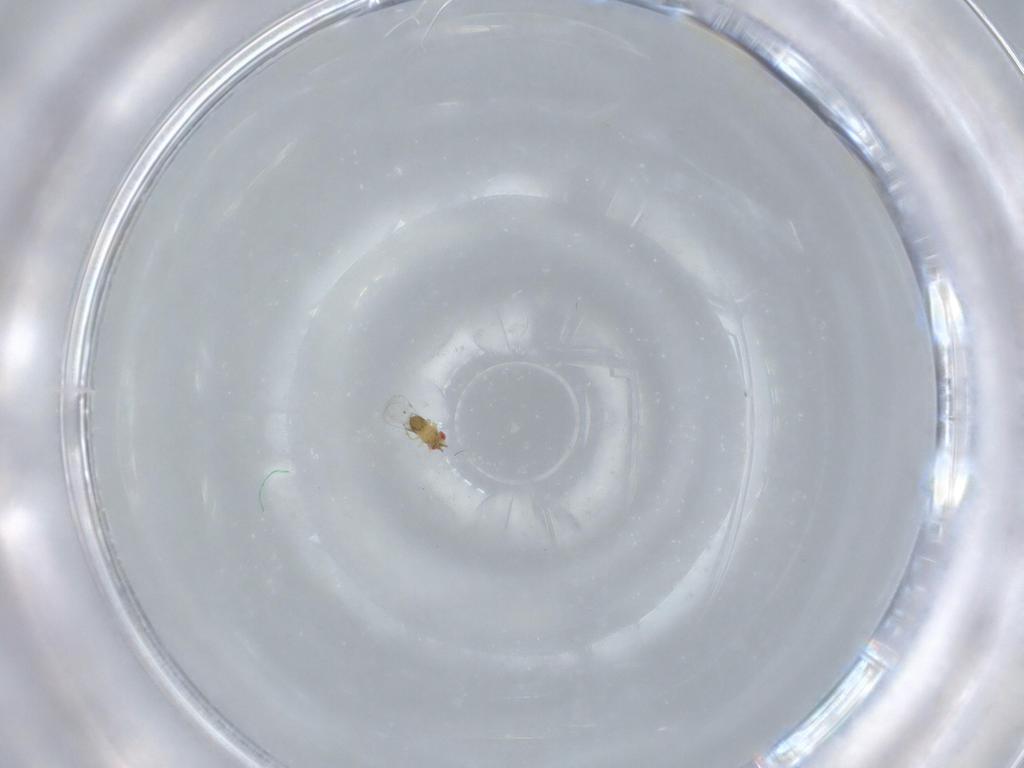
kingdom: Animalia
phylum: Arthropoda
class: Insecta
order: Hymenoptera
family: Trichogrammatidae
